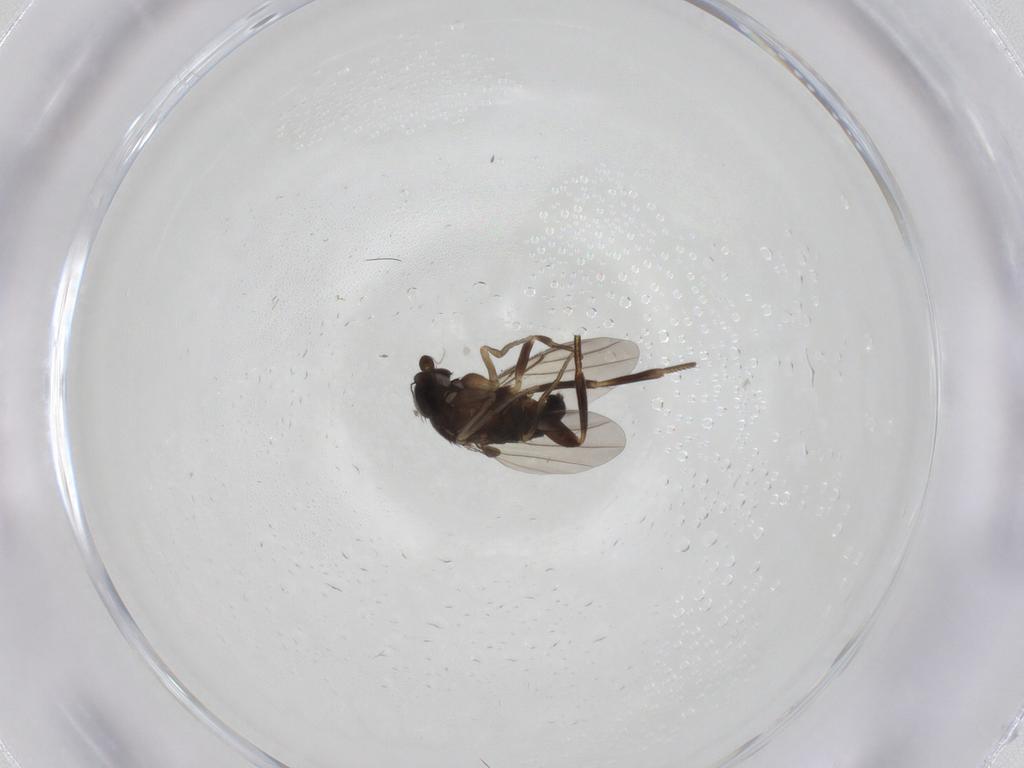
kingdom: Animalia
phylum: Arthropoda
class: Insecta
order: Diptera
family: Phoridae
